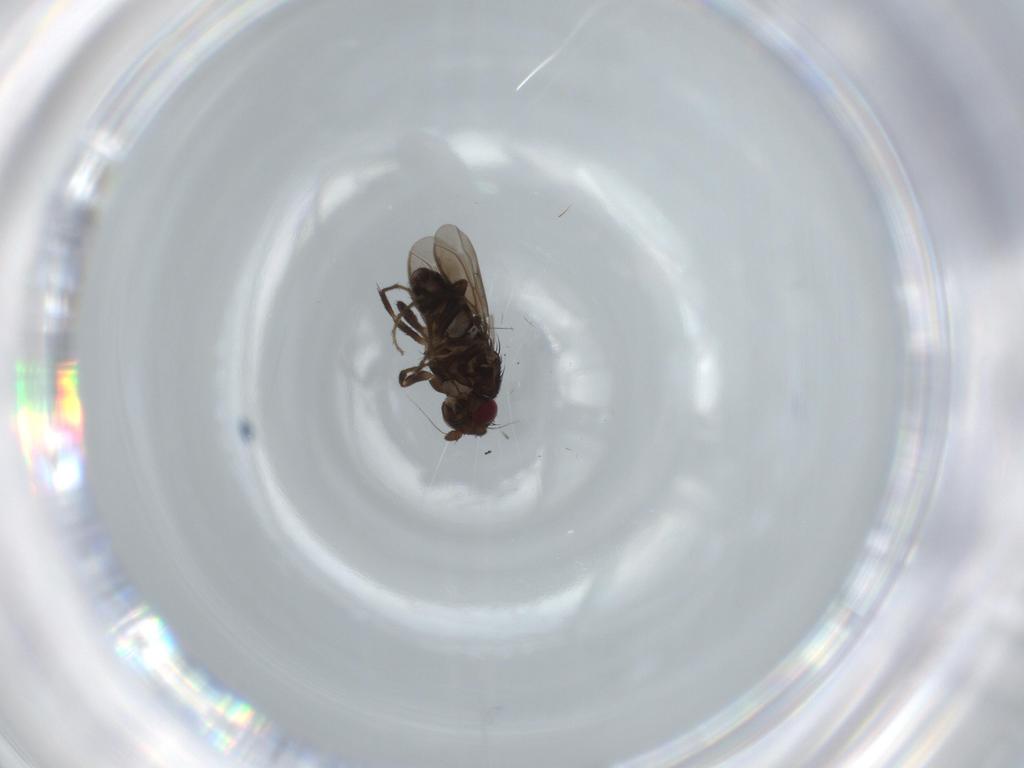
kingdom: Animalia
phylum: Arthropoda
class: Insecta
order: Diptera
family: Sphaeroceridae
